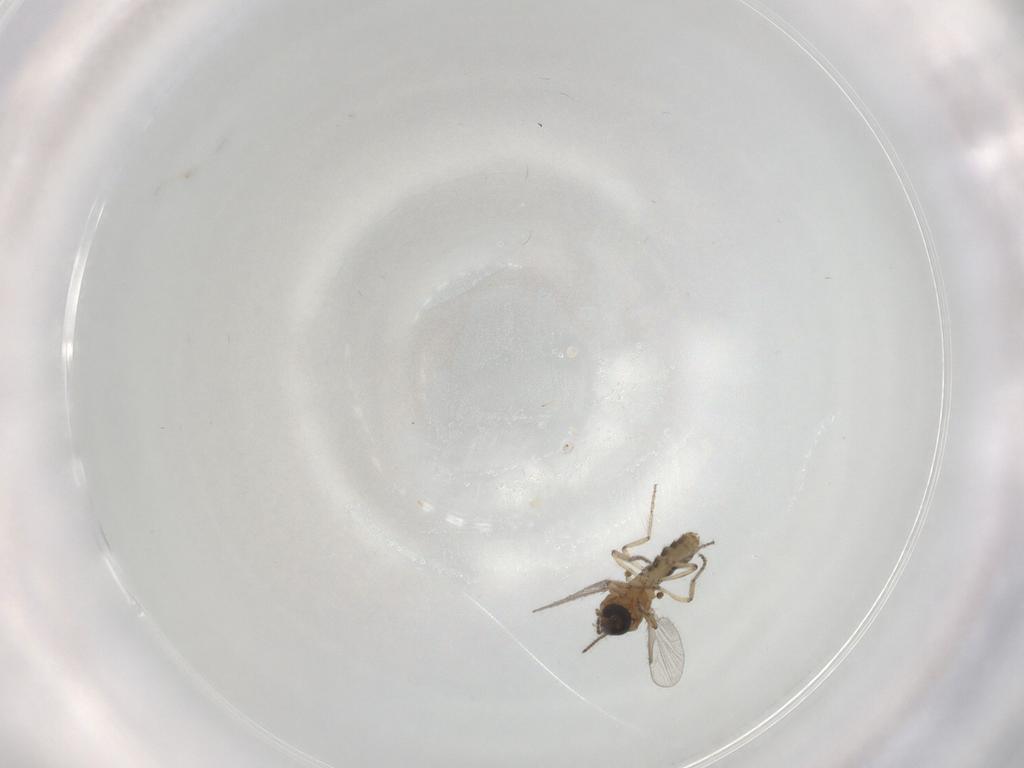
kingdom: Animalia
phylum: Arthropoda
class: Insecta
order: Diptera
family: Ceratopogonidae
